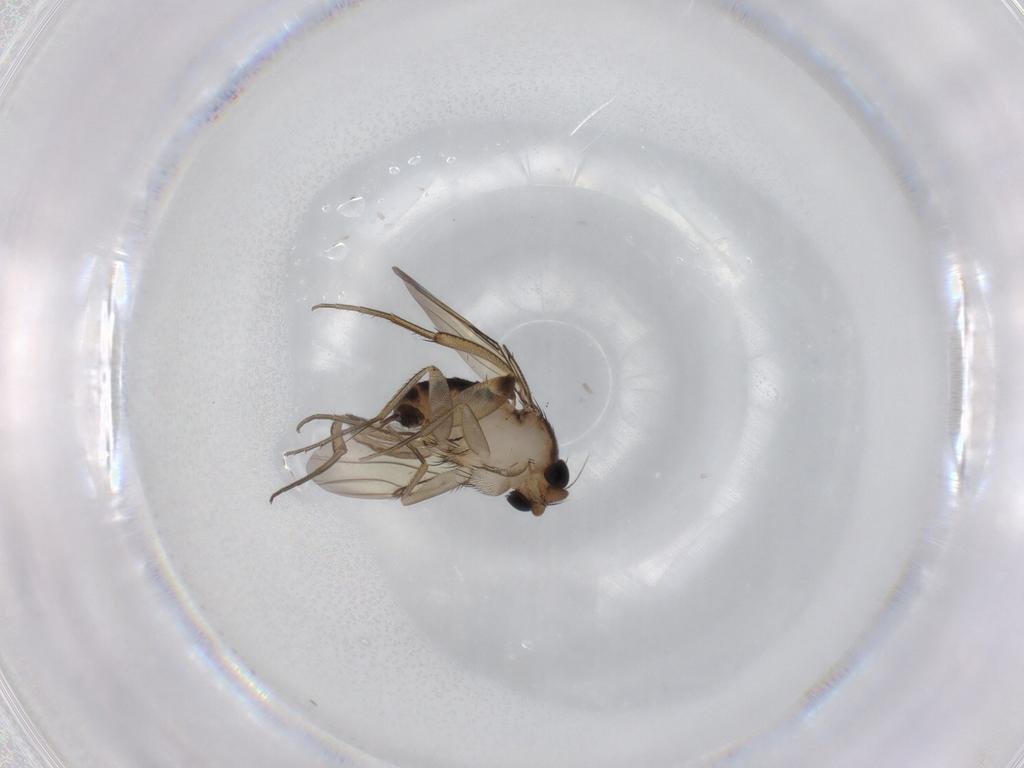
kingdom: Animalia
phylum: Arthropoda
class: Insecta
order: Diptera
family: Phoridae
